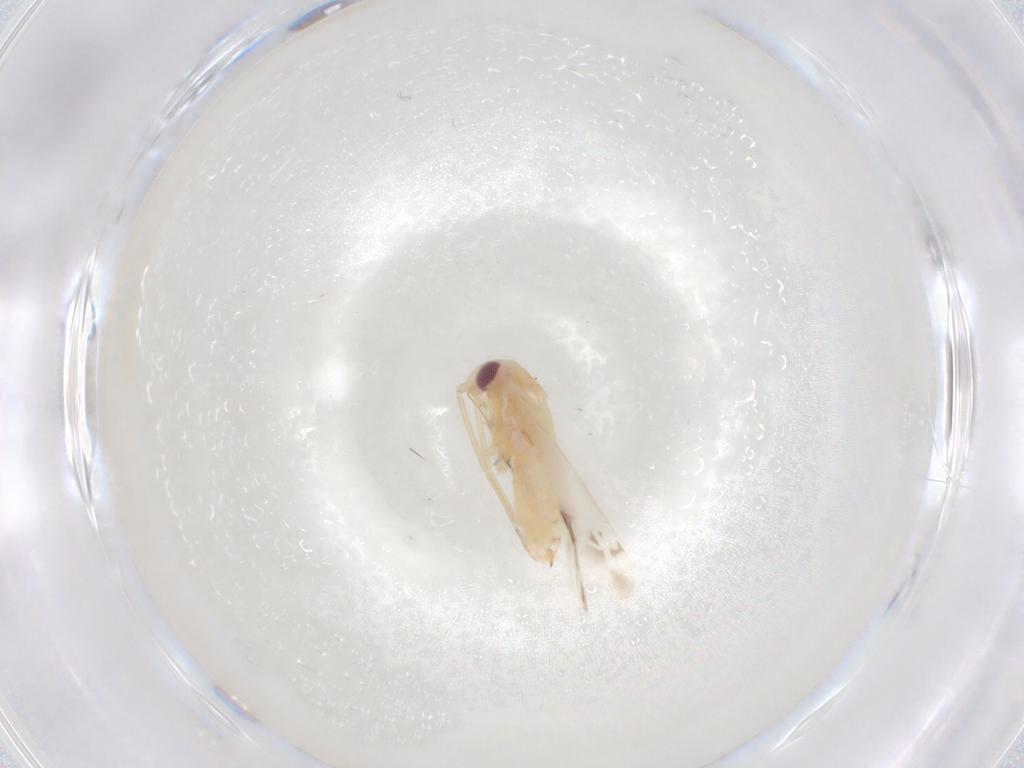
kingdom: Animalia
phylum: Arthropoda
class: Insecta
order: Hemiptera
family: Miridae
